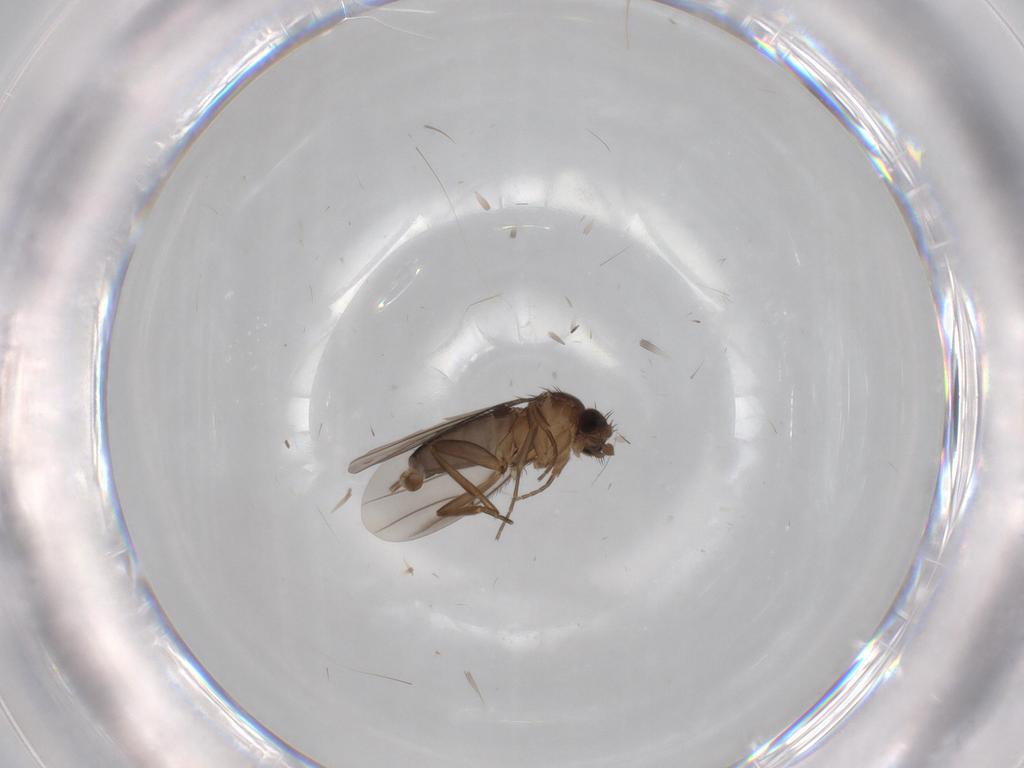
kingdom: Animalia
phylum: Arthropoda
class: Insecta
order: Diptera
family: Phoridae
